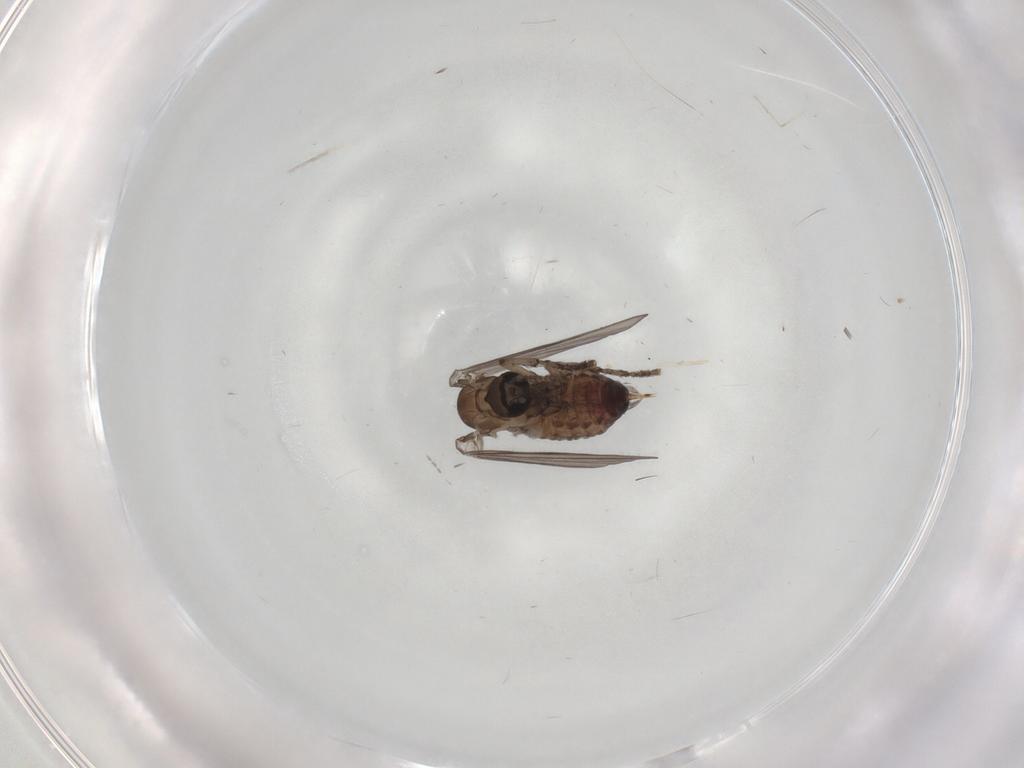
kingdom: Animalia
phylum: Arthropoda
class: Insecta
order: Diptera
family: Psychodidae
